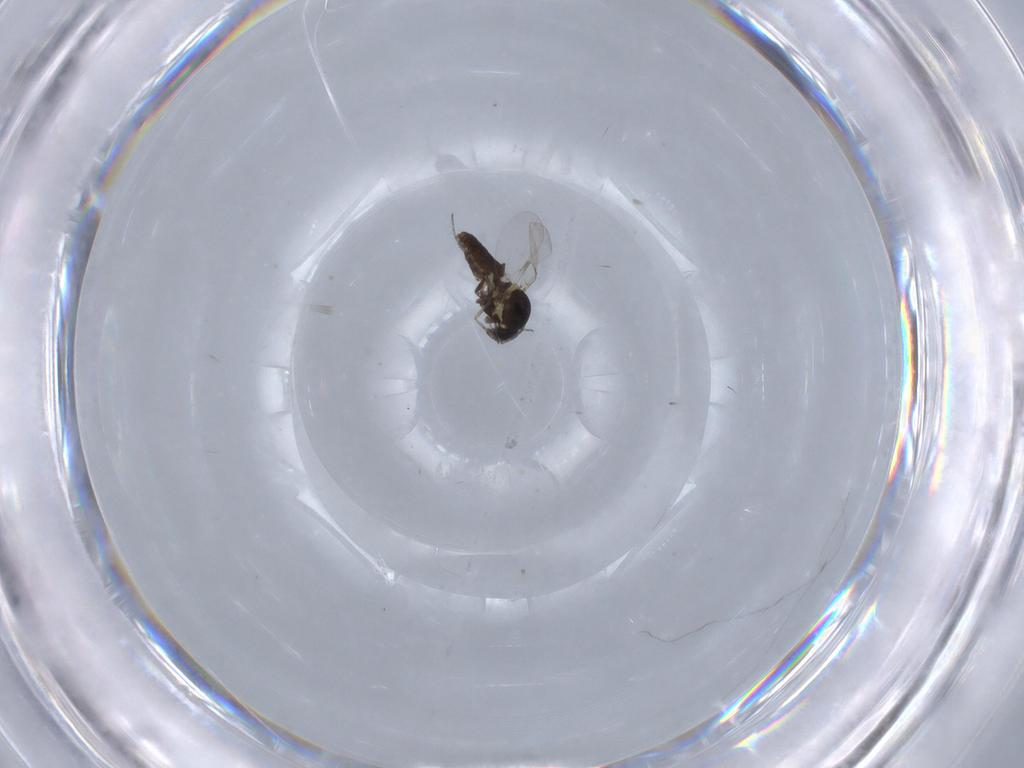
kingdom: Animalia
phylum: Arthropoda
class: Insecta
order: Diptera
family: Ceratopogonidae
